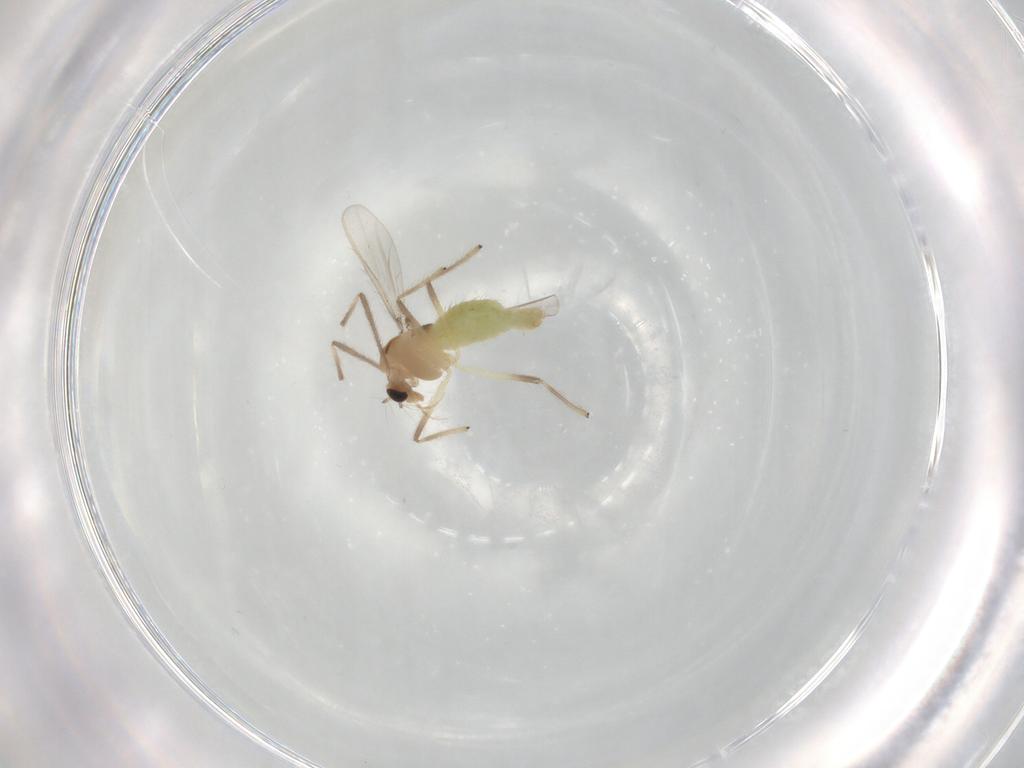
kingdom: Animalia
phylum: Arthropoda
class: Insecta
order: Diptera
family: Chironomidae
